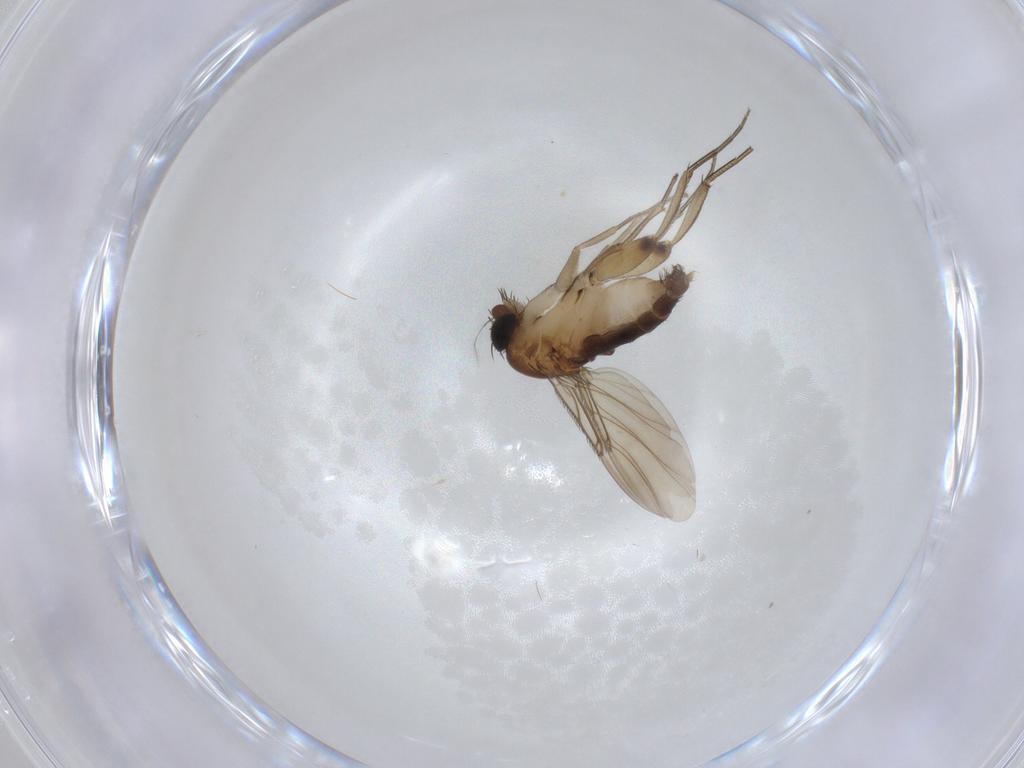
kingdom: Animalia
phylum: Arthropoda
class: Insecta
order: Diptera
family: Phoridae
